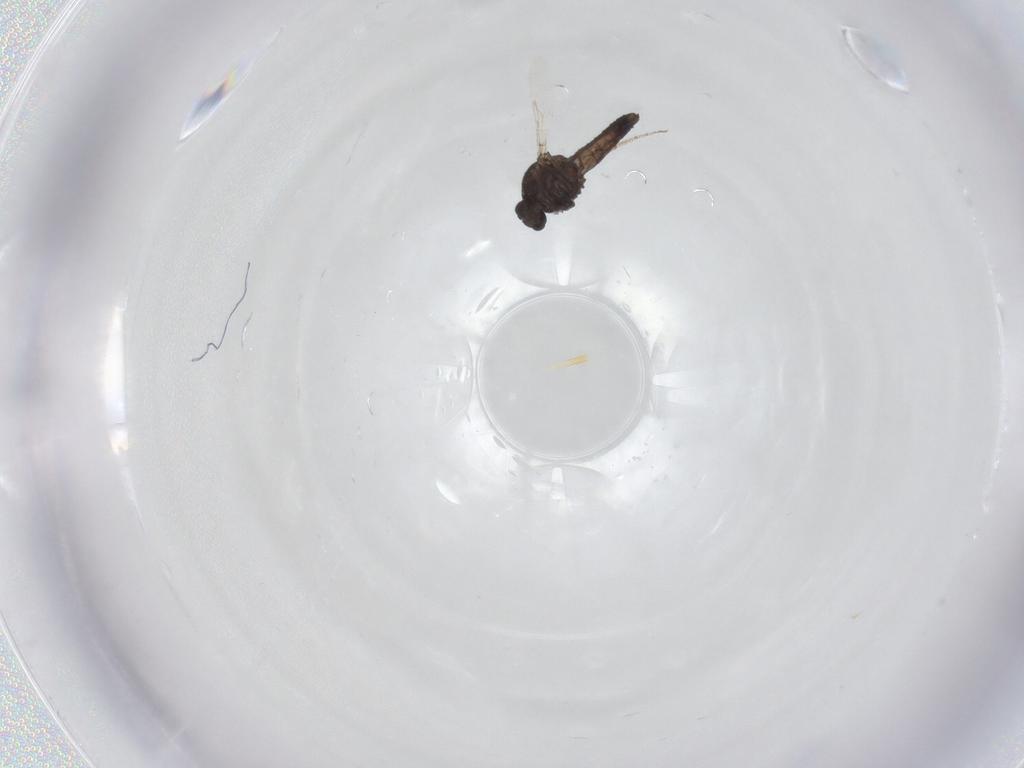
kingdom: Animalia
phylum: Arthropoda
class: Insecta
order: Diptera
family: Ceratopogonidae
